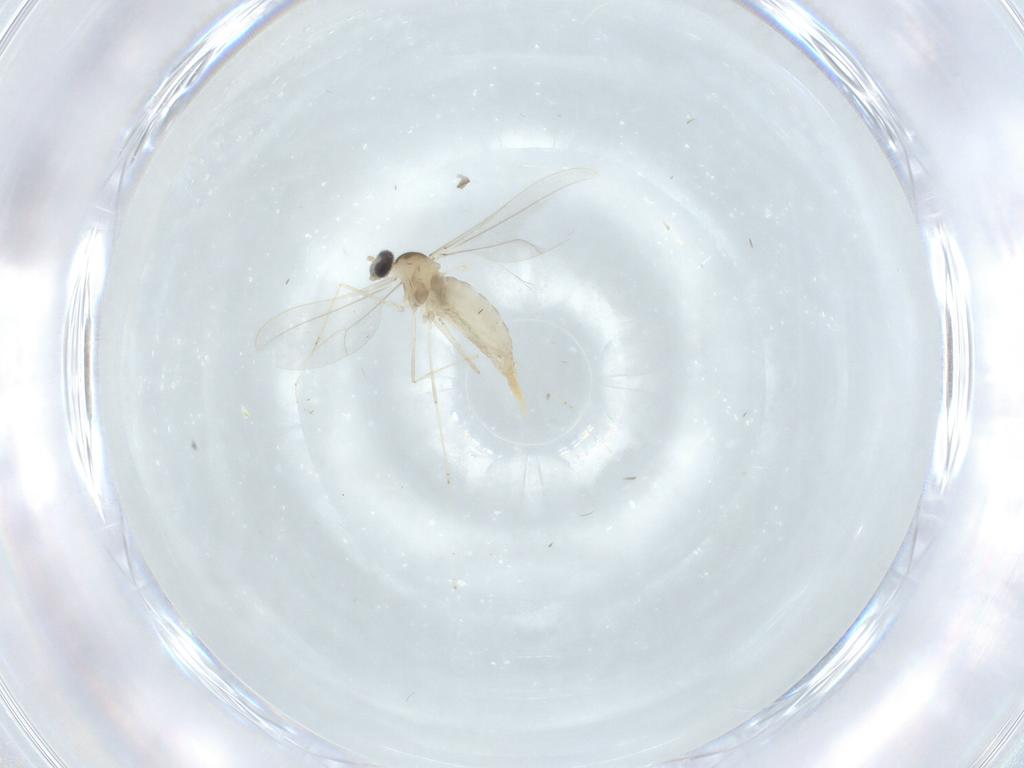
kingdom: Animalia
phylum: Arthropoda
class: Insecta
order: Diptera
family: Cecidomyiidae
